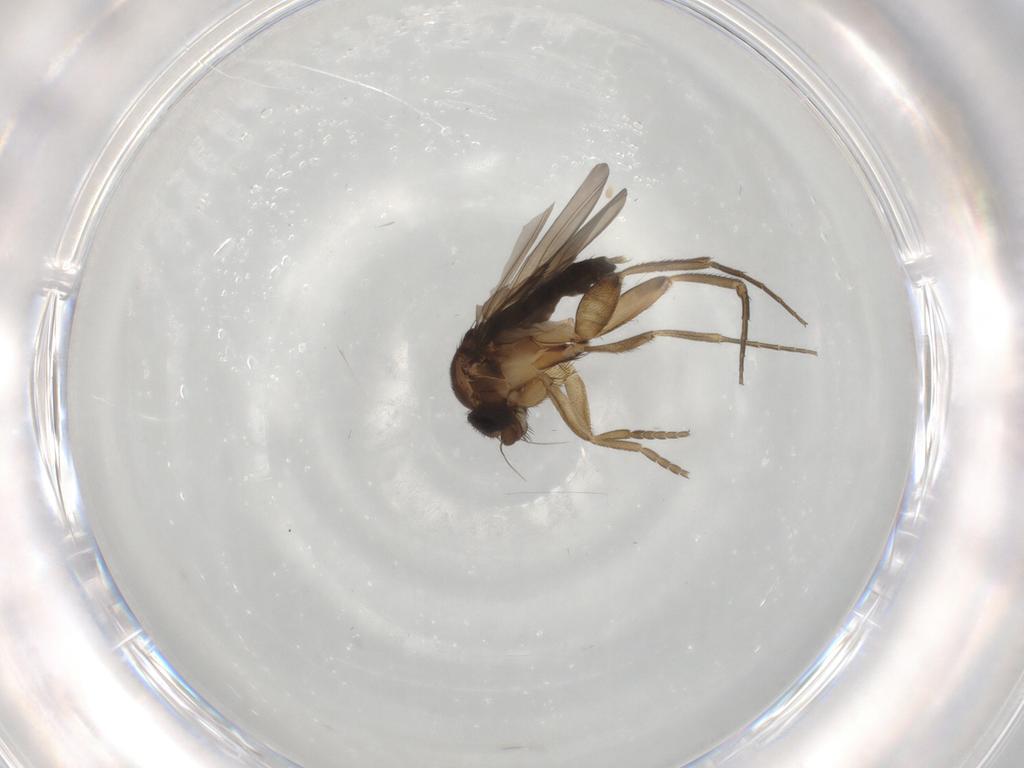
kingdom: Animalia
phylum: Arthropoda
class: Insecta
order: Diptera
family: Phoridae
